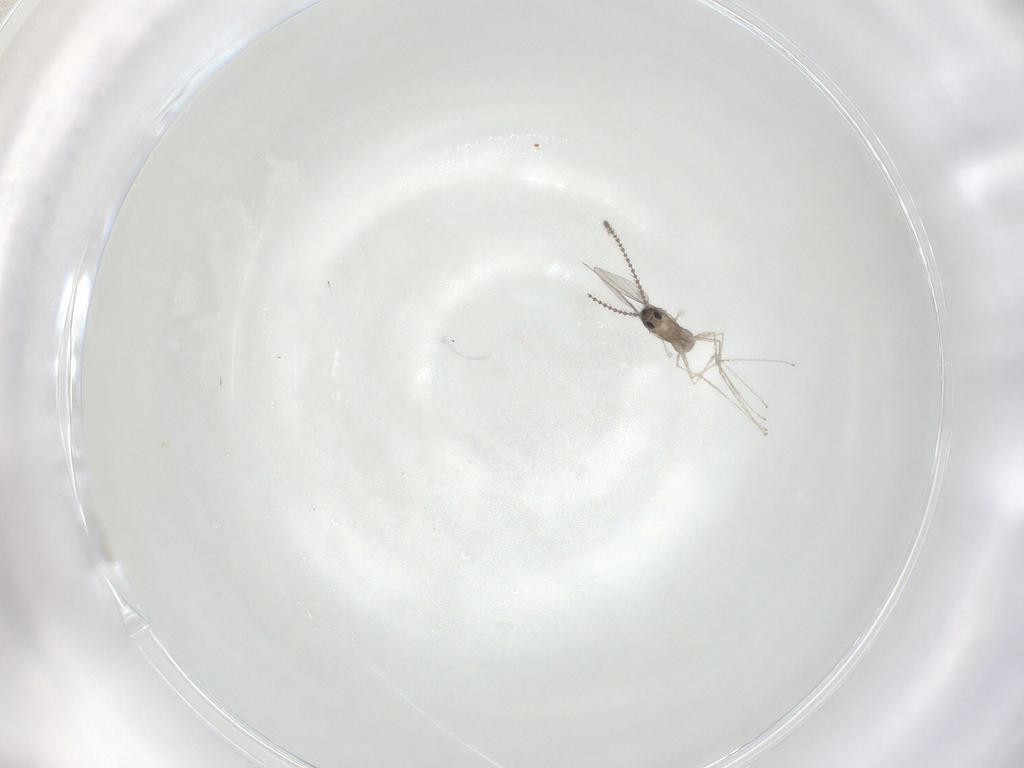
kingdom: Animalia
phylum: Arthropoda
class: Insecta
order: Diptera
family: Cecidomyiidae
